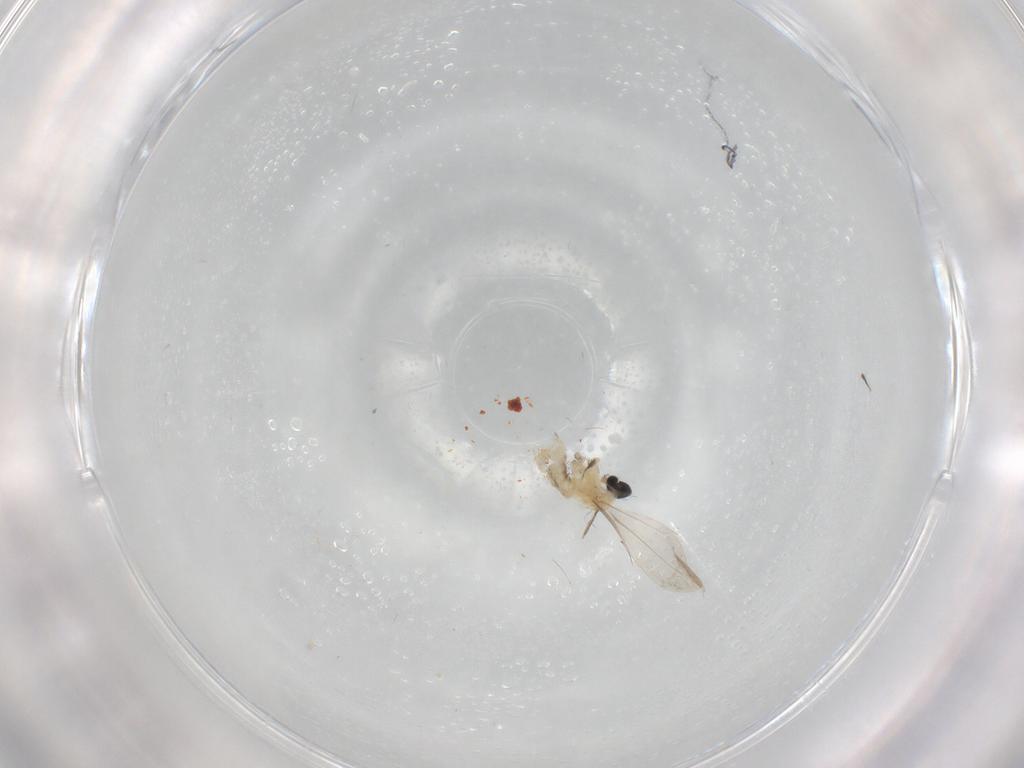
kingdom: Animalia
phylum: Arthropoda
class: Insecta
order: Diptera
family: Cecidomyiidae
